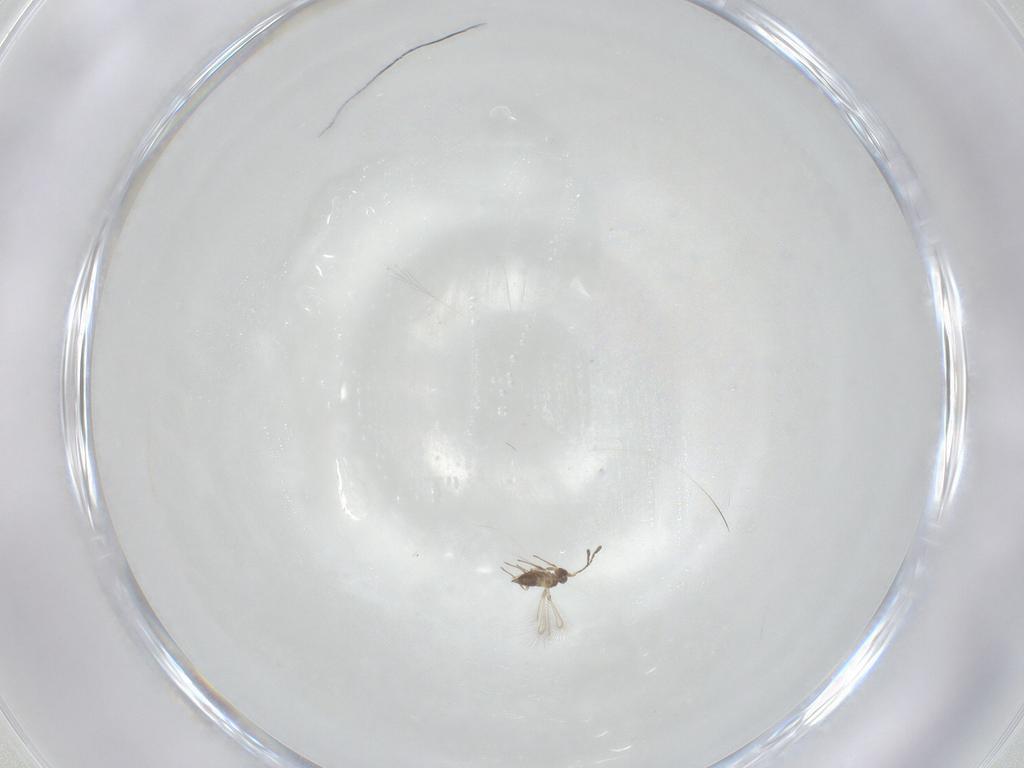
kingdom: Animalia
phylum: Arthropoda
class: Insecta
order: Hymenoptera
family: Mymaridae
